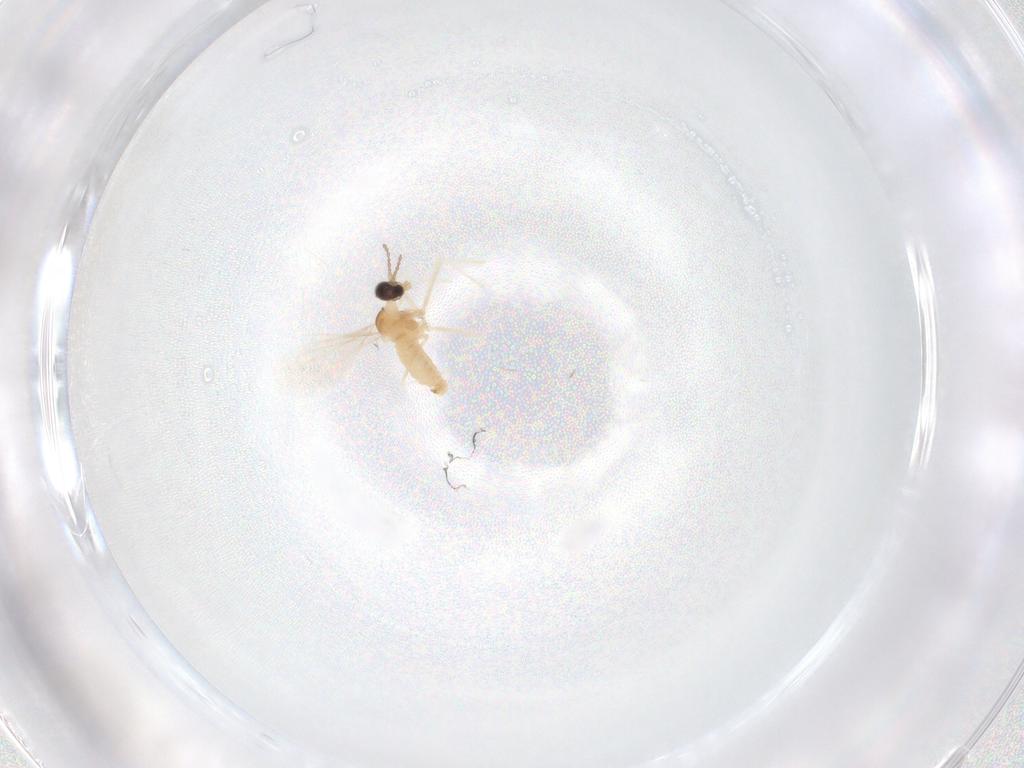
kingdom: Animalia
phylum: Arthropoda
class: Insecta
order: Diptera
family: Cecidomyiidae
